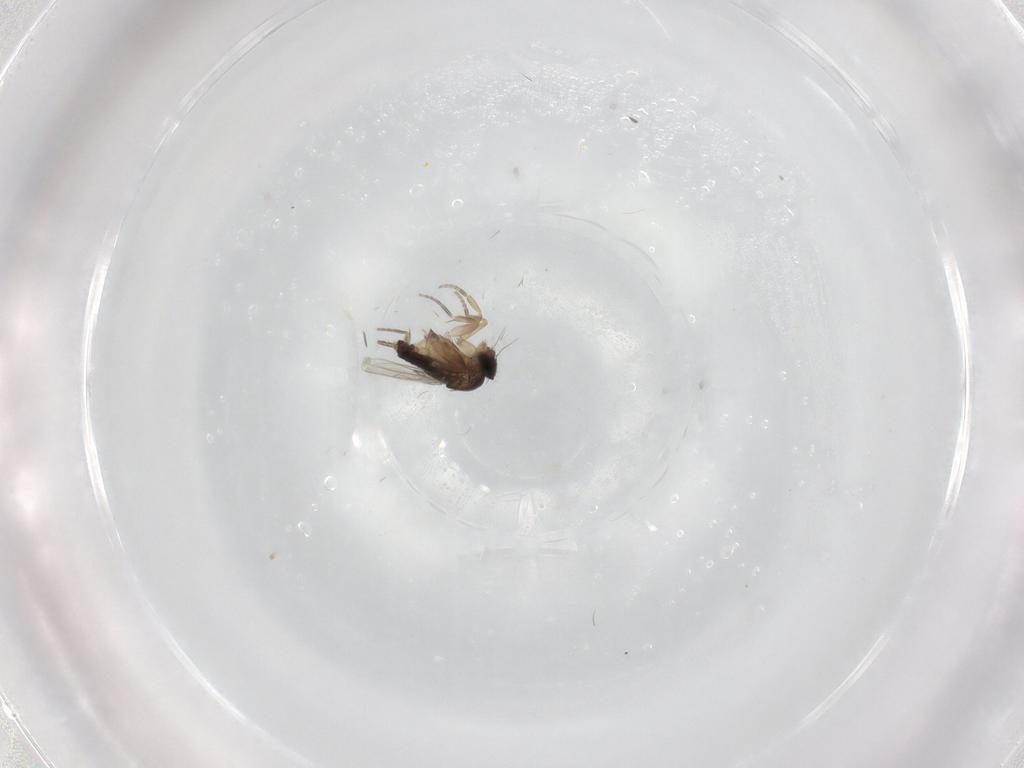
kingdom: Animalia
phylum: Arthropoda
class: Insecta
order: Diptera
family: Ditomyiidae
